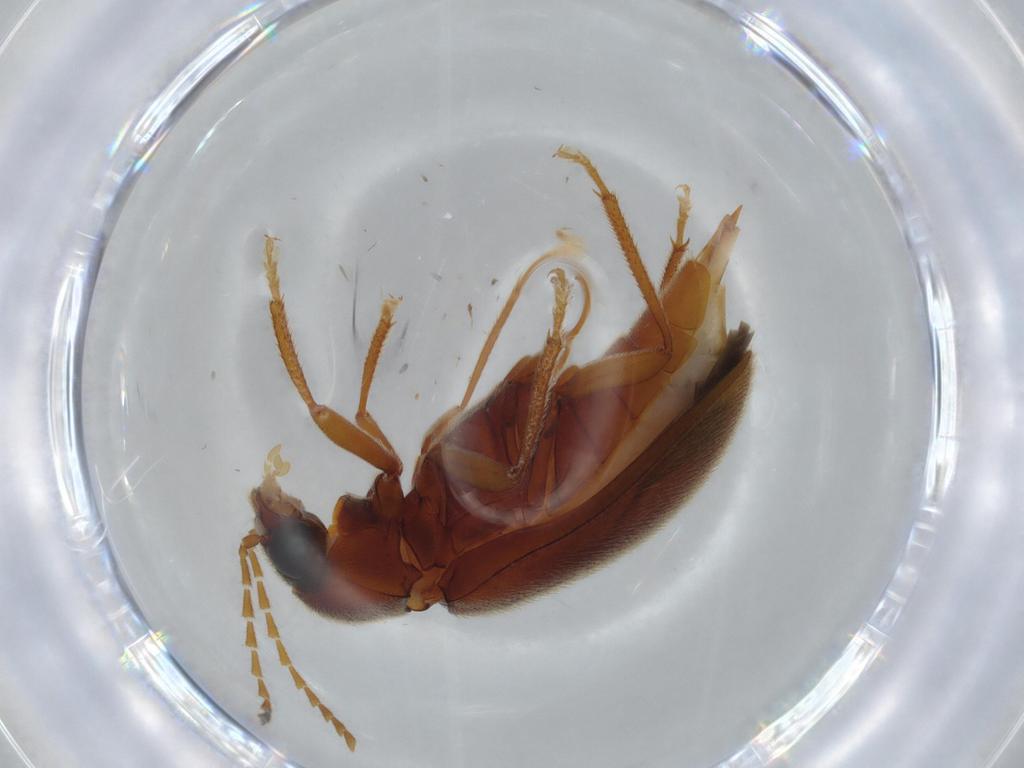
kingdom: Animalia
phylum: Arthropoda
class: Insecta
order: Coleoptera
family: Ptilodactylidae
